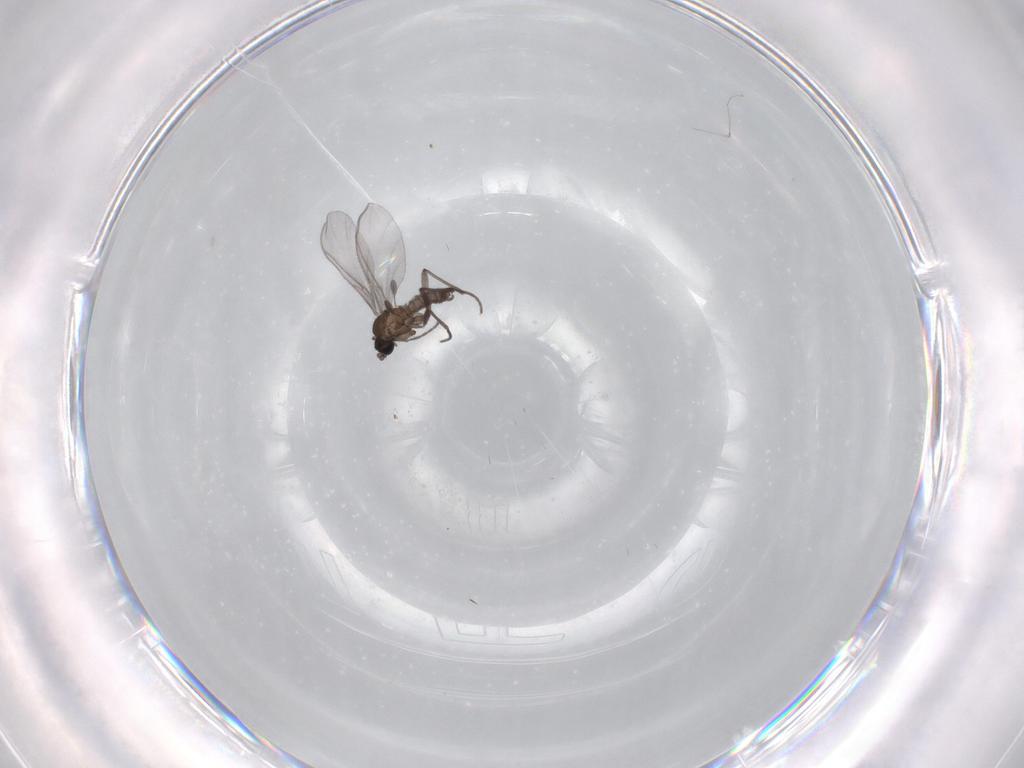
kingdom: Animalia
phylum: Arthropoda
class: Insecta
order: Diptera
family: Sciaridae
